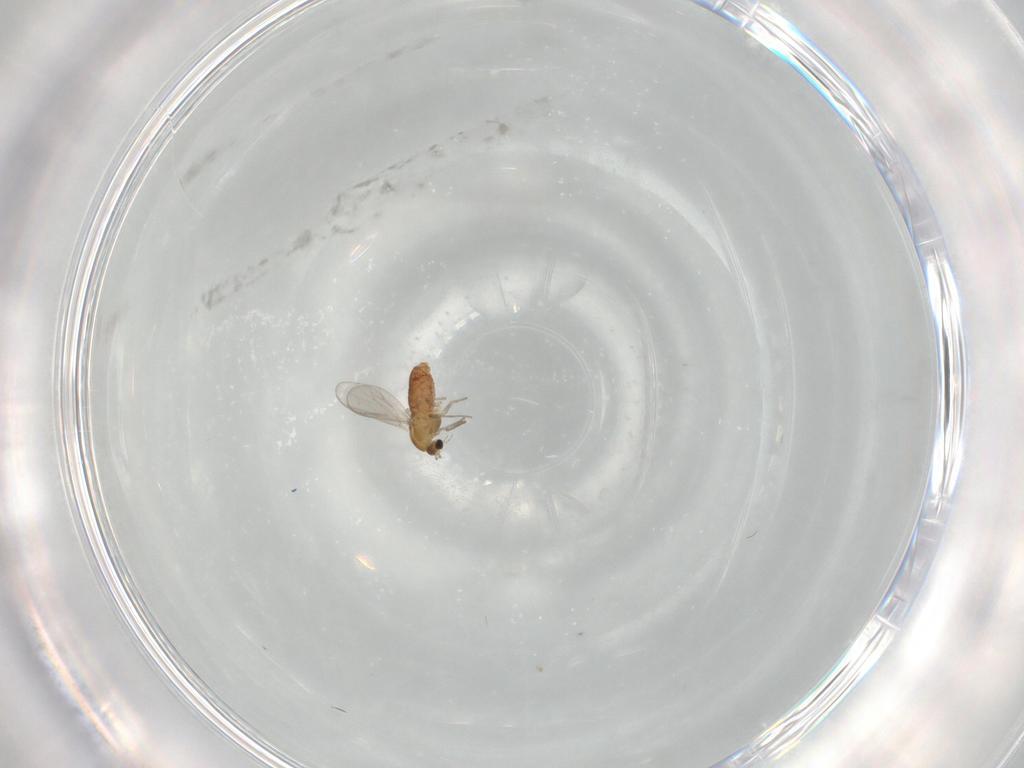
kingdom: Animalia
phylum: Arthropoda
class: Insecta
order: Diptera
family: Chironomidae
